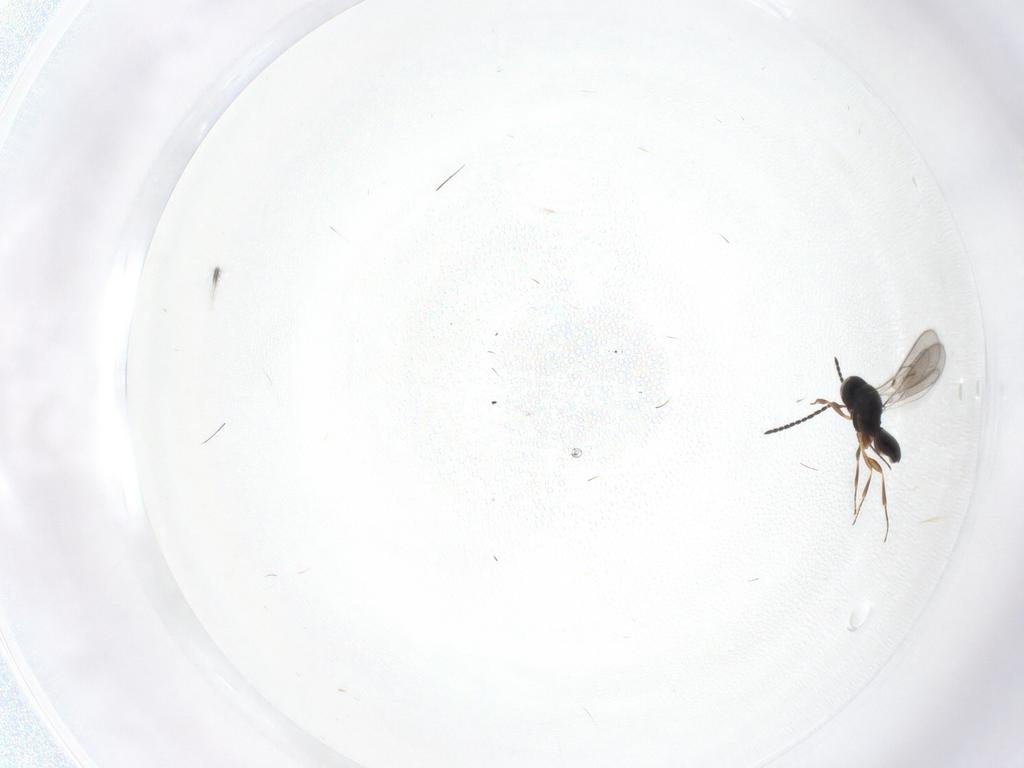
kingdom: Animalia
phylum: Arthropoda
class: Insecta
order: Hymenoptera
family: Scelionidae
